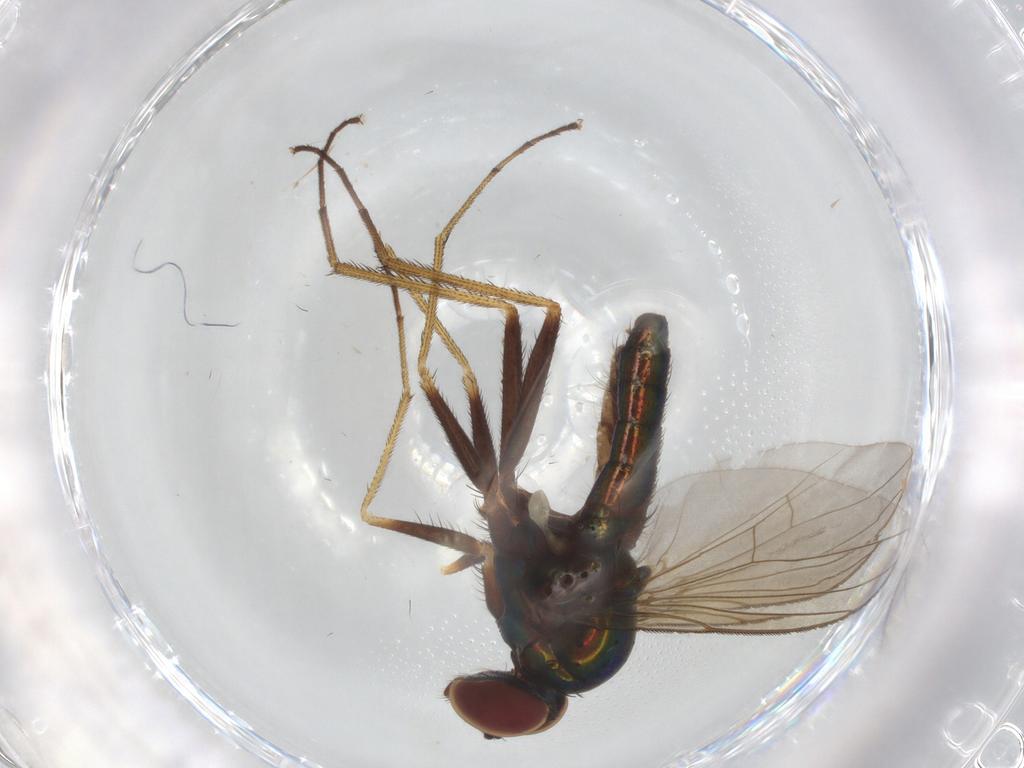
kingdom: Animalia
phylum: Arthropoda
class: Insecta
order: Diptera
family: Dolichopodidae
